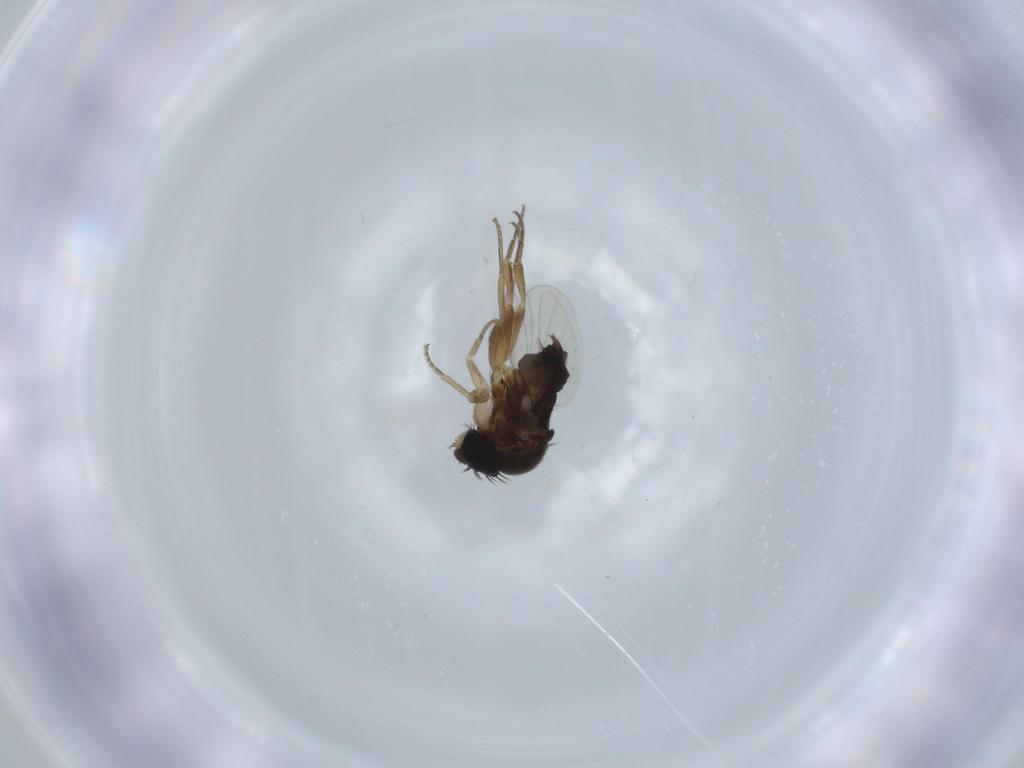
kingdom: Animalia
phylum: Arthropoda
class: Insecta
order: Diptera
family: Phoridae
